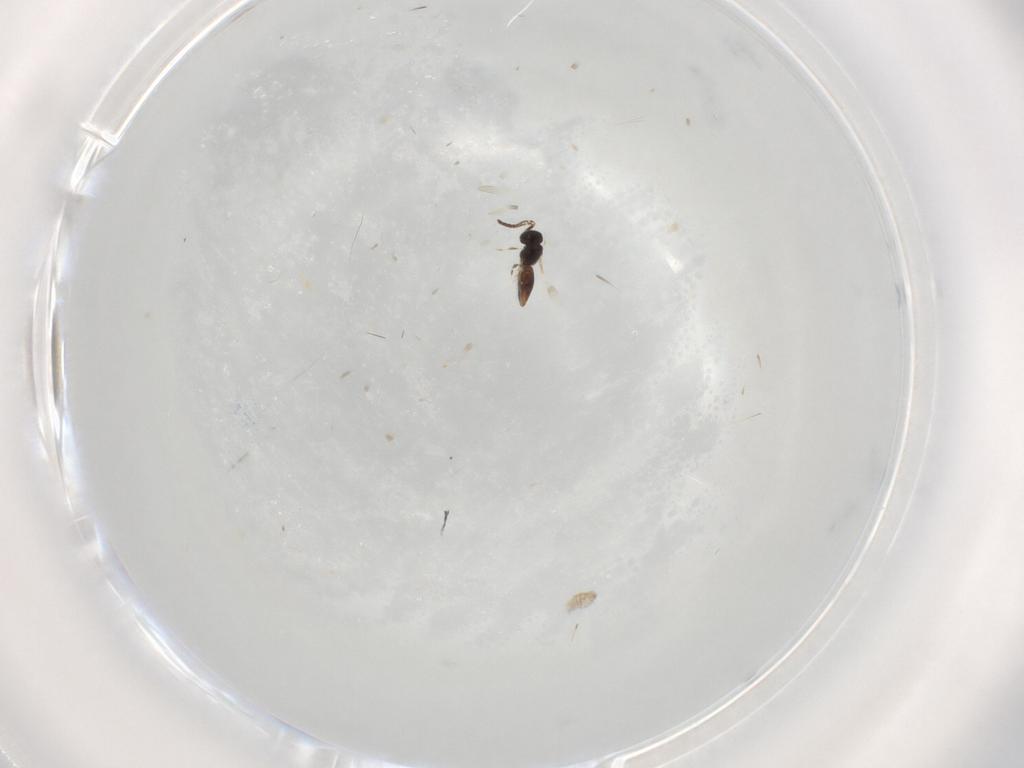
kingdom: Animalia
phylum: Arthropoda
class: Insecta
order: Hymenoptera
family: Scelionidae
